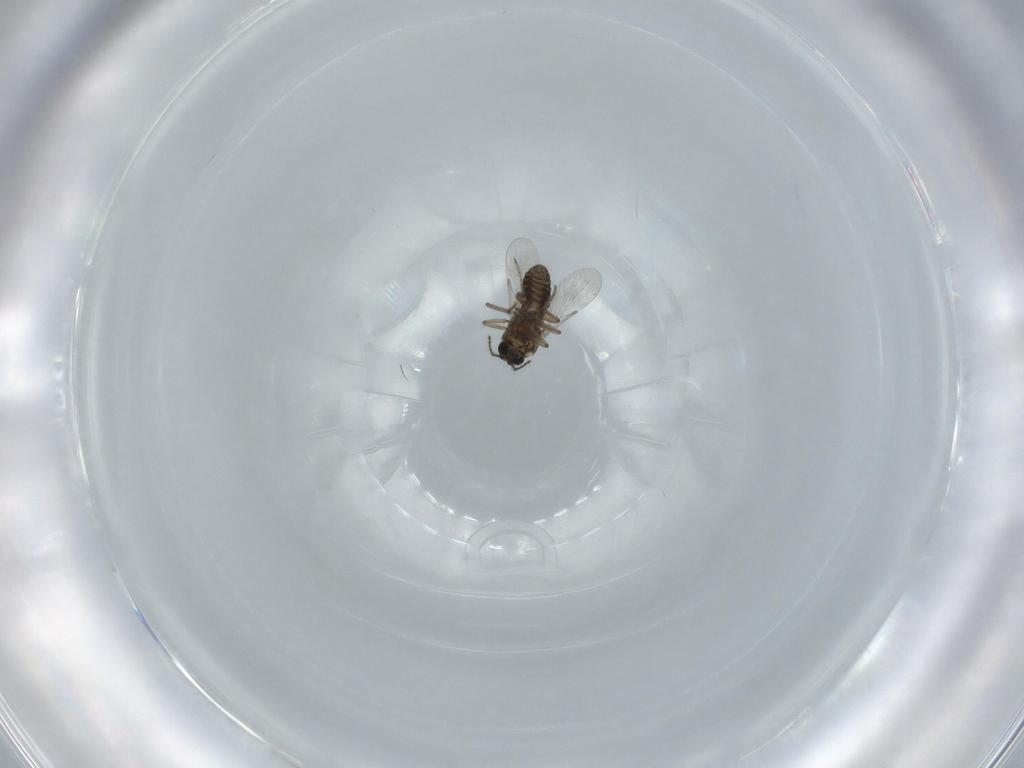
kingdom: Animalia
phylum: Arthropoda
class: Insecta
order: Diptera
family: Ceratopogonidae
